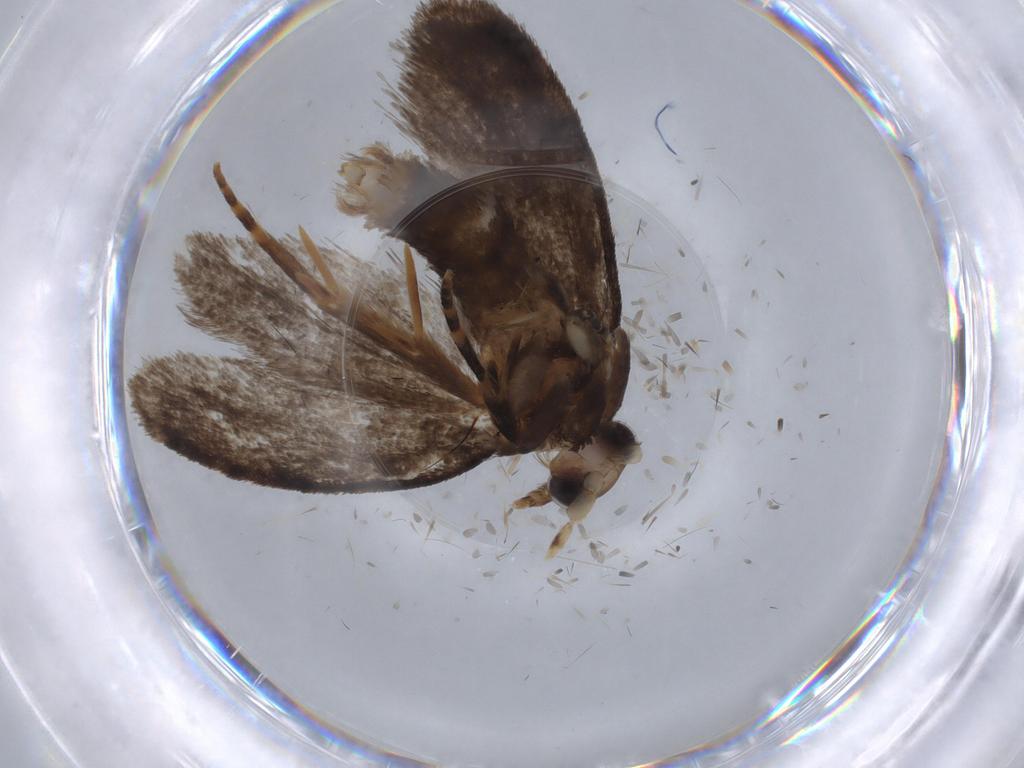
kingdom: Animalia
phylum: Arthropoda
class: Insecta
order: Lepidoptera
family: Tineidae
